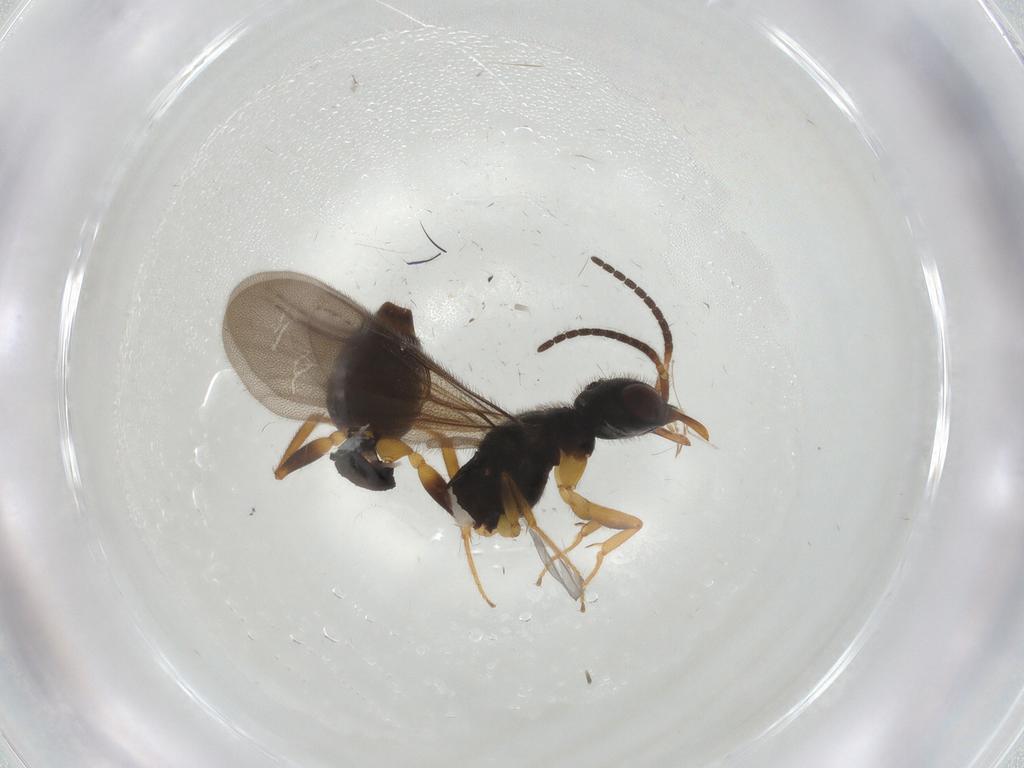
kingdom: Animalia
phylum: Arthropoda
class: Insecta
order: Hymenoptera
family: Bethylidae
